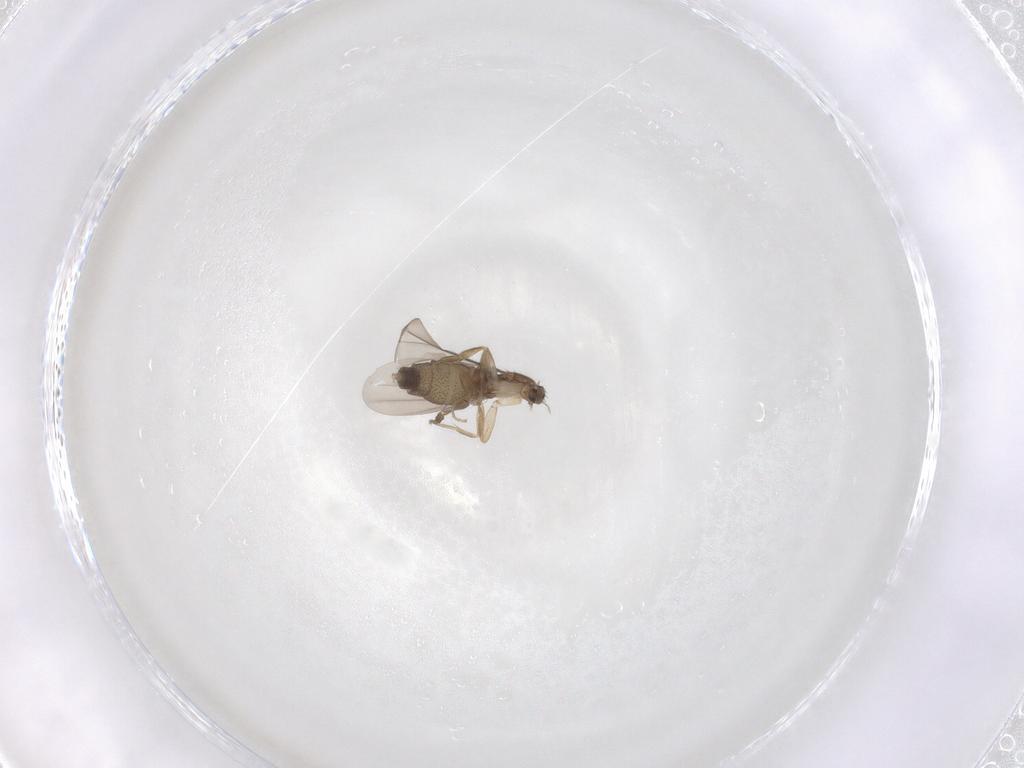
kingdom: Animalia
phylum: Arthropoda
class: Insecta
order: Diptera
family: Phoridae
